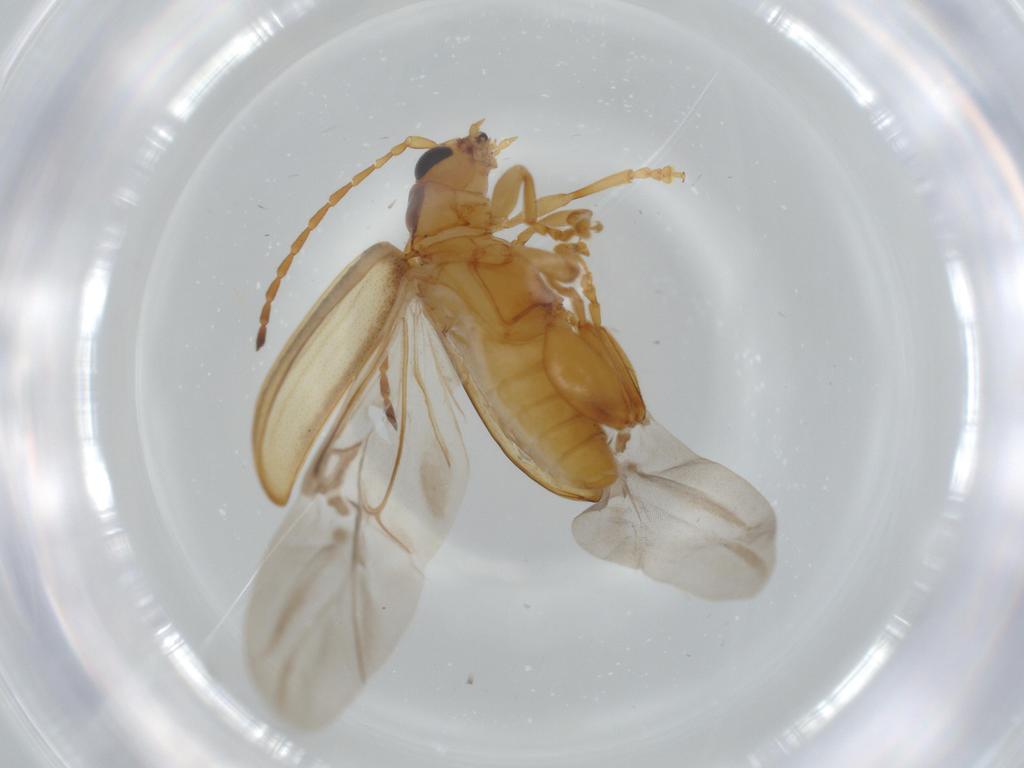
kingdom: Animalia
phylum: Arthropoda
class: Insecta
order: Coleoptera
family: Chrysomelidae
